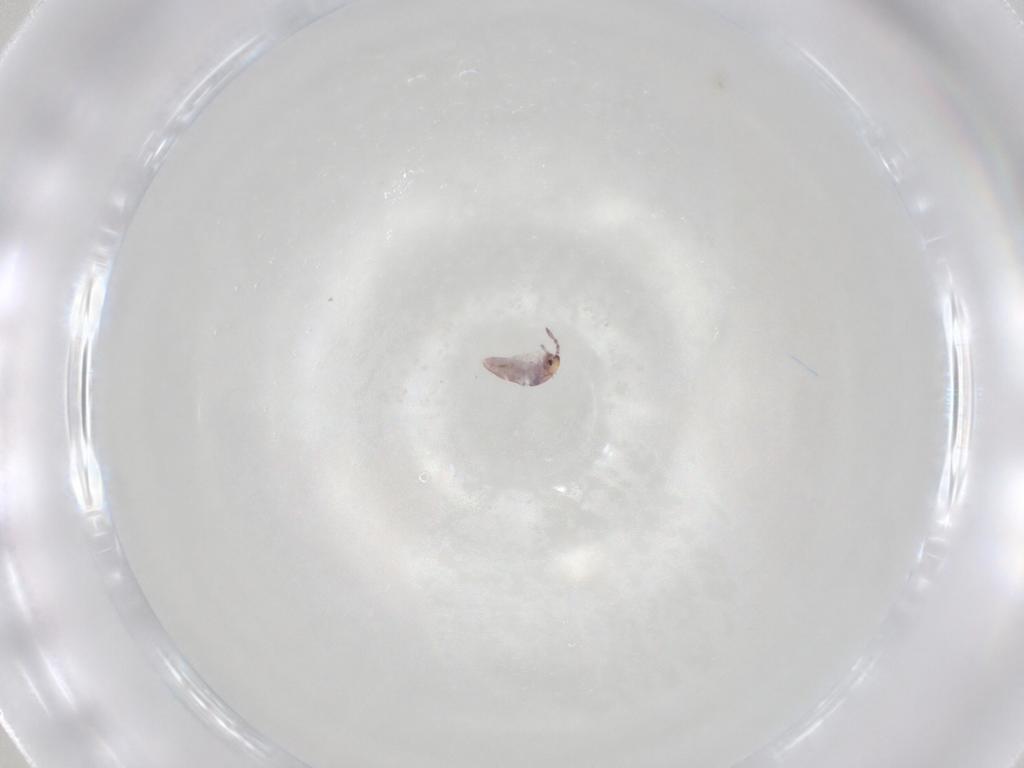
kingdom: Animalia
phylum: Arthropoda
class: Collembola
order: Entomobryomorpha
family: Entomobryidae
